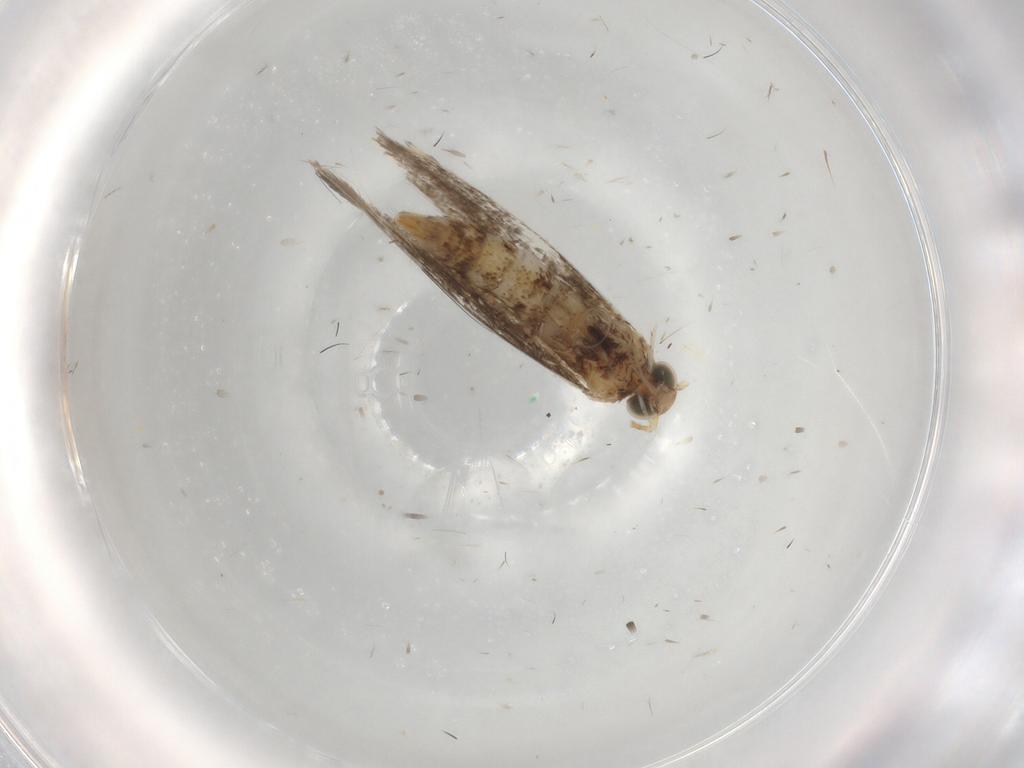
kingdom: Animalia
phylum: Arthropoda
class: Insecta
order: Lepidoptera
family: Gracillariidae
